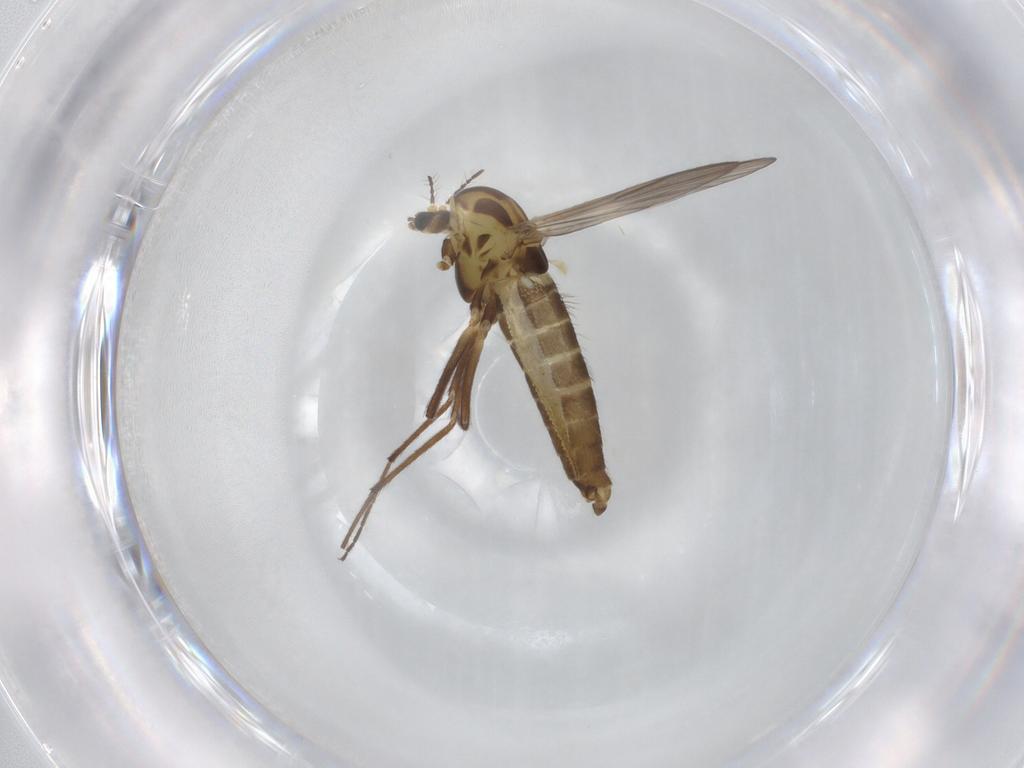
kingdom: Animalia
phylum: Arthropoda
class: Insecta
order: Diptera
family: Chironomidae
